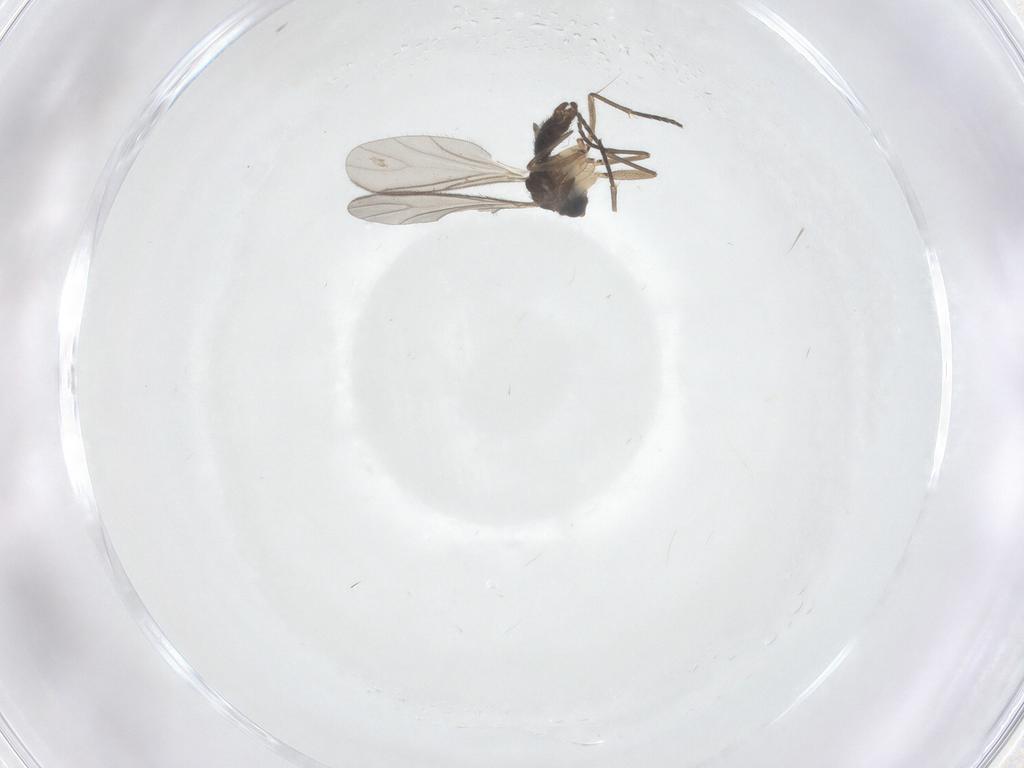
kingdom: Animalia
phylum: Arthropoda
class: Insecta
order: Diptera
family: Sciaridae
